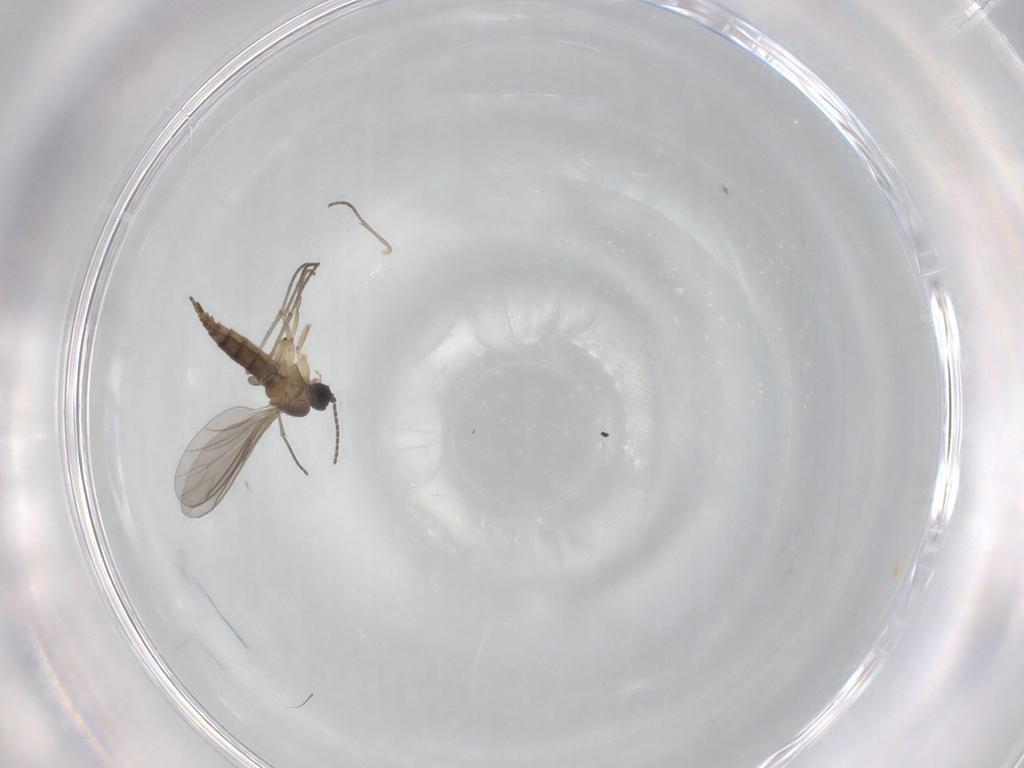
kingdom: Animalia
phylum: Arthropoda
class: Insecta
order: Diptera
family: Sciaridae
